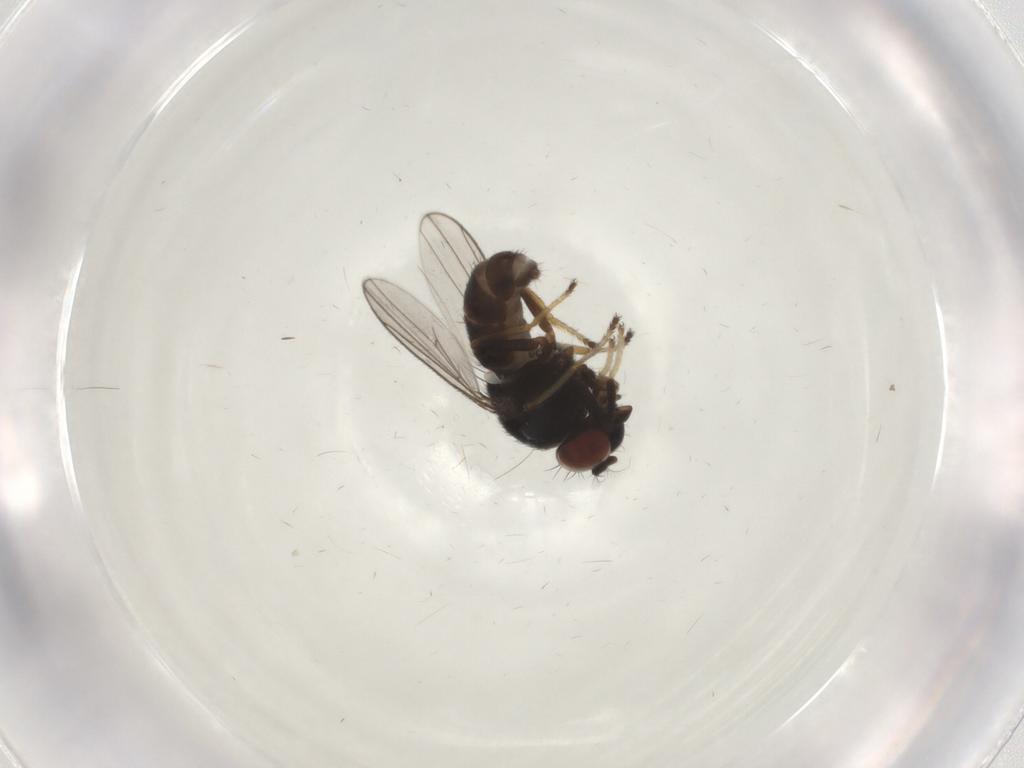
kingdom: Animalia
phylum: Arthropoda
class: Insecta
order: Diptera
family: Ephydridae
